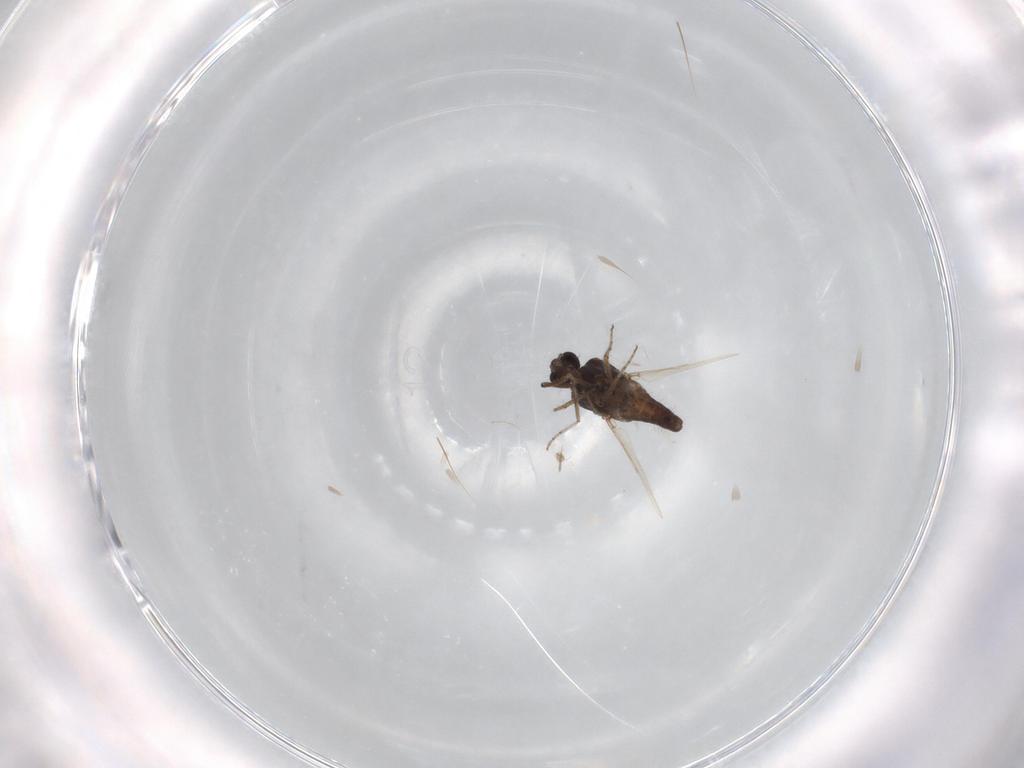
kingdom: Animalia
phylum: Arthropoda
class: Insecta
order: Diptera
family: Ceratopogonidae
